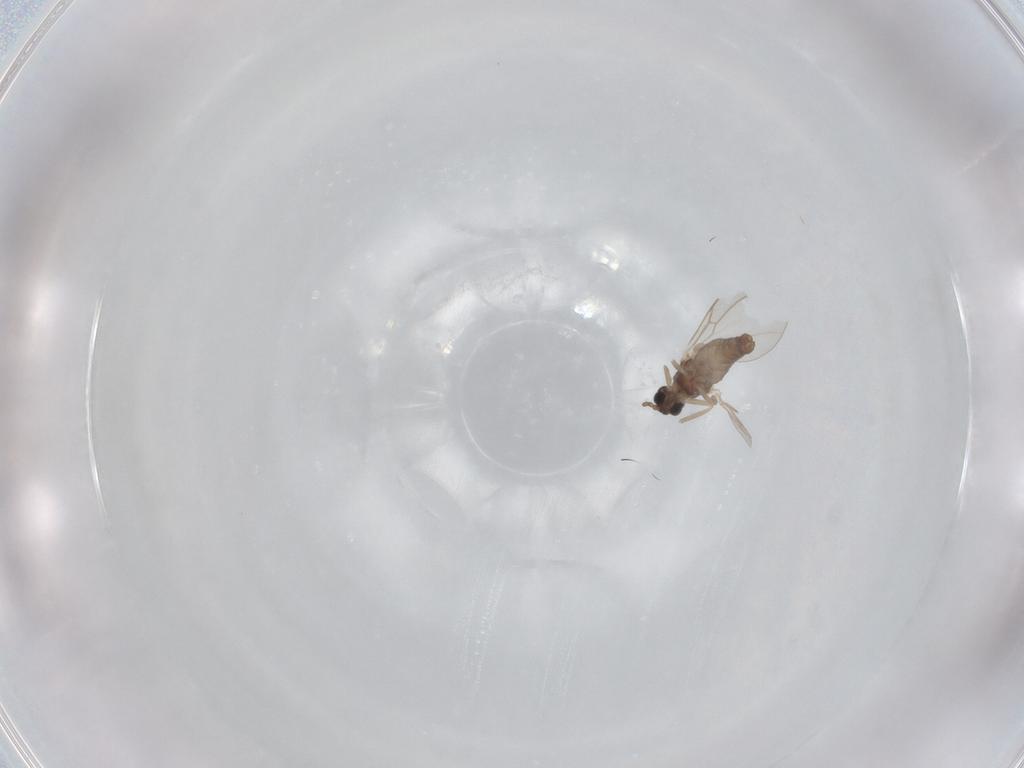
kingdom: Animalia
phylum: Arthropoda
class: Insecta
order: Diptera
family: Cecidomyiidae
